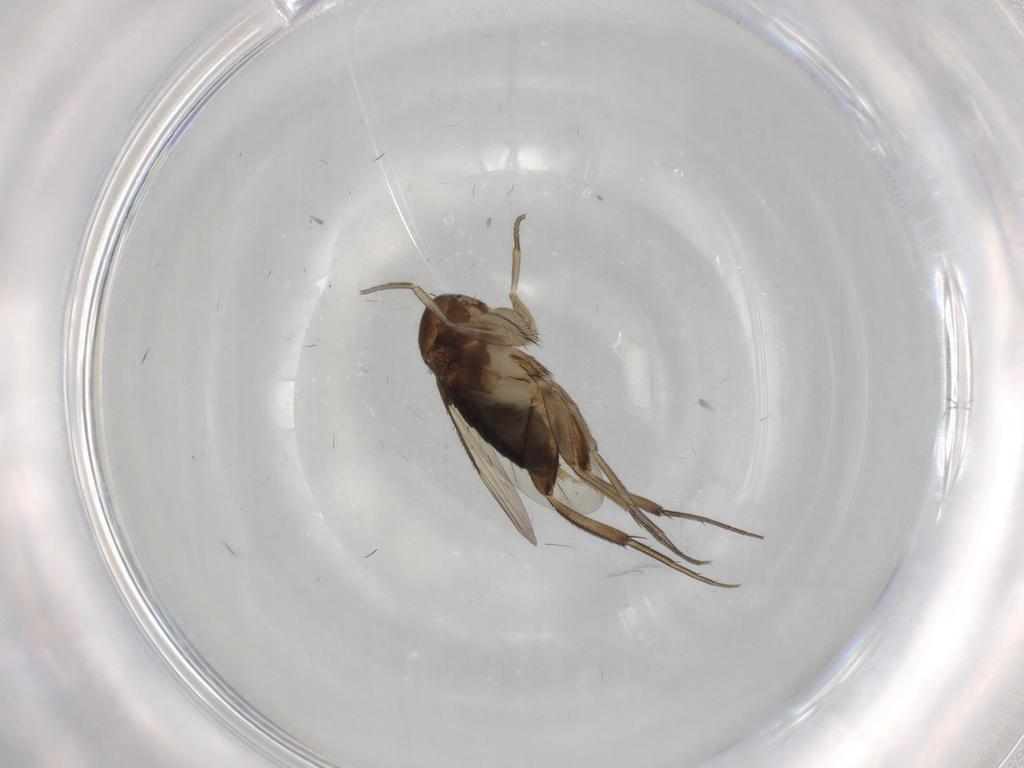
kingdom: Animalia
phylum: Arthropoda
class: Insecta
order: Diptera
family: Phoridae
